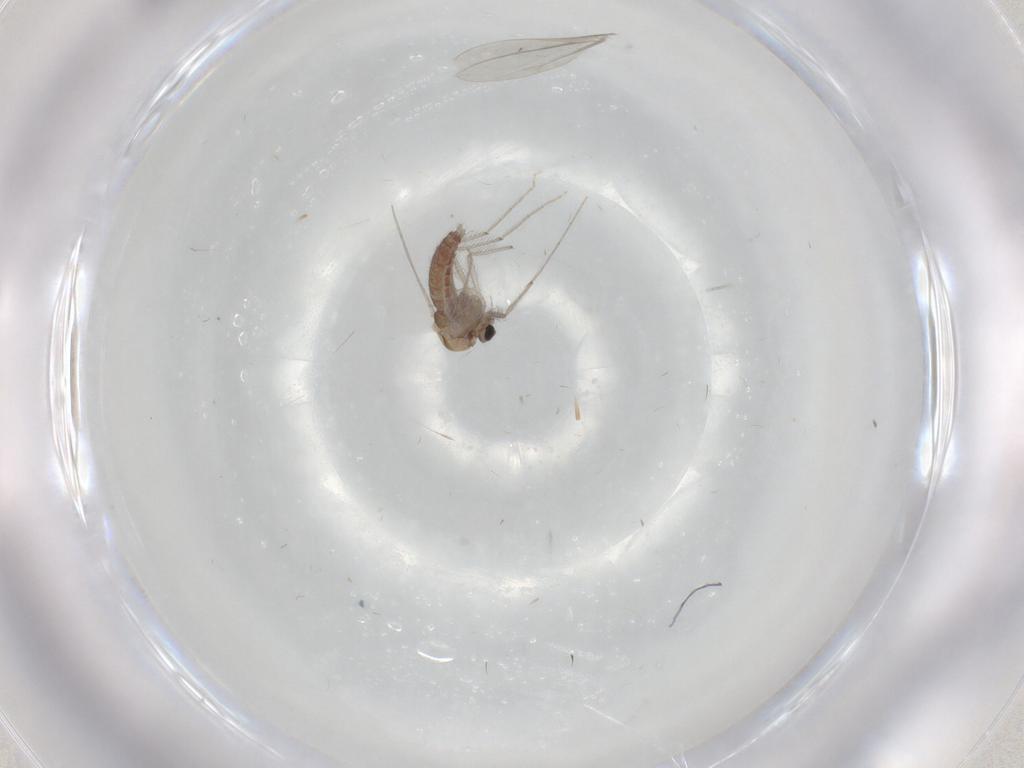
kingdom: Animalia
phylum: Arthropoda
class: Insecta
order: Diptera
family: Chironomidae
